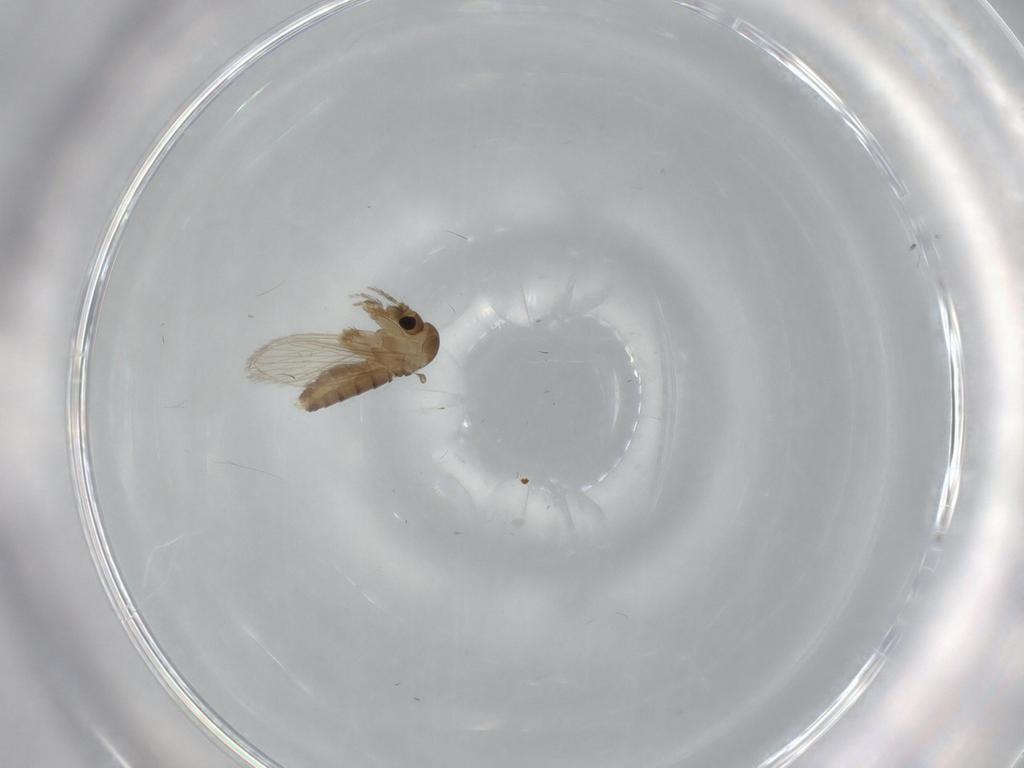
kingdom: Animalia
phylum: Arthropoda
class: Insecta
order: Diptera
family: Psychodidae
